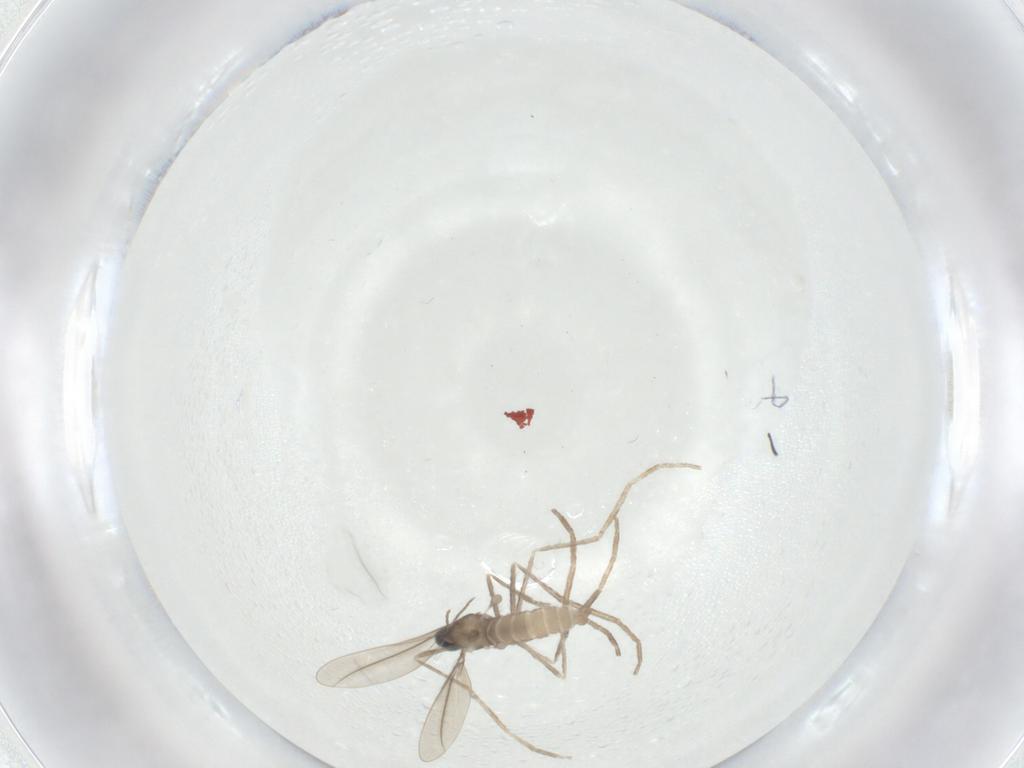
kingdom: Animalia
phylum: Arthropoda
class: Insecta
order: Diptera
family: Cecidomyiidae
